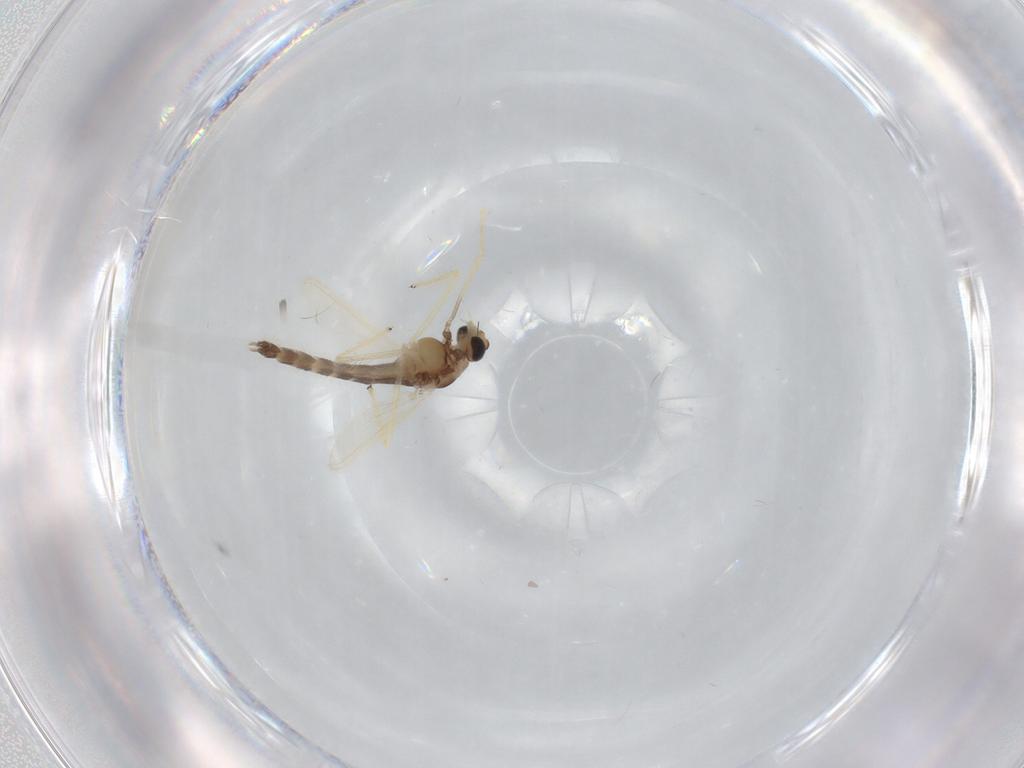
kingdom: Animalia
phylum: Arthropoda
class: Insecta
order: Diptera
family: Chironomidae
